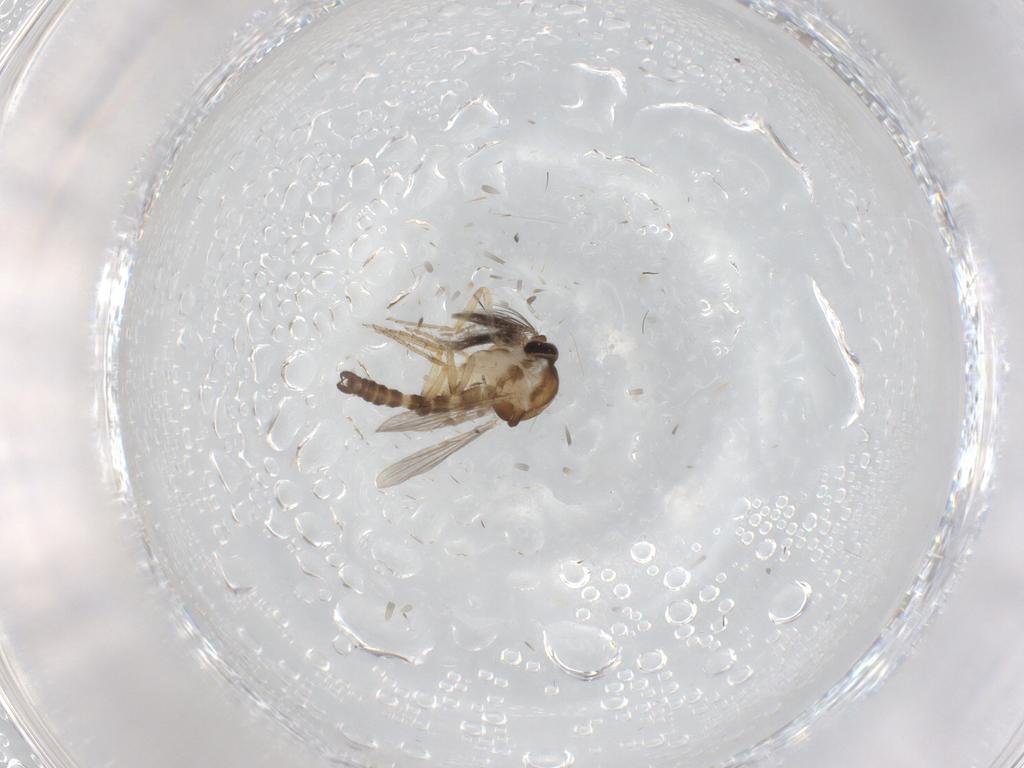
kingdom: Animalia
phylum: Arthropoda
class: Insecta
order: Diptera
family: Ceratopogonidae
